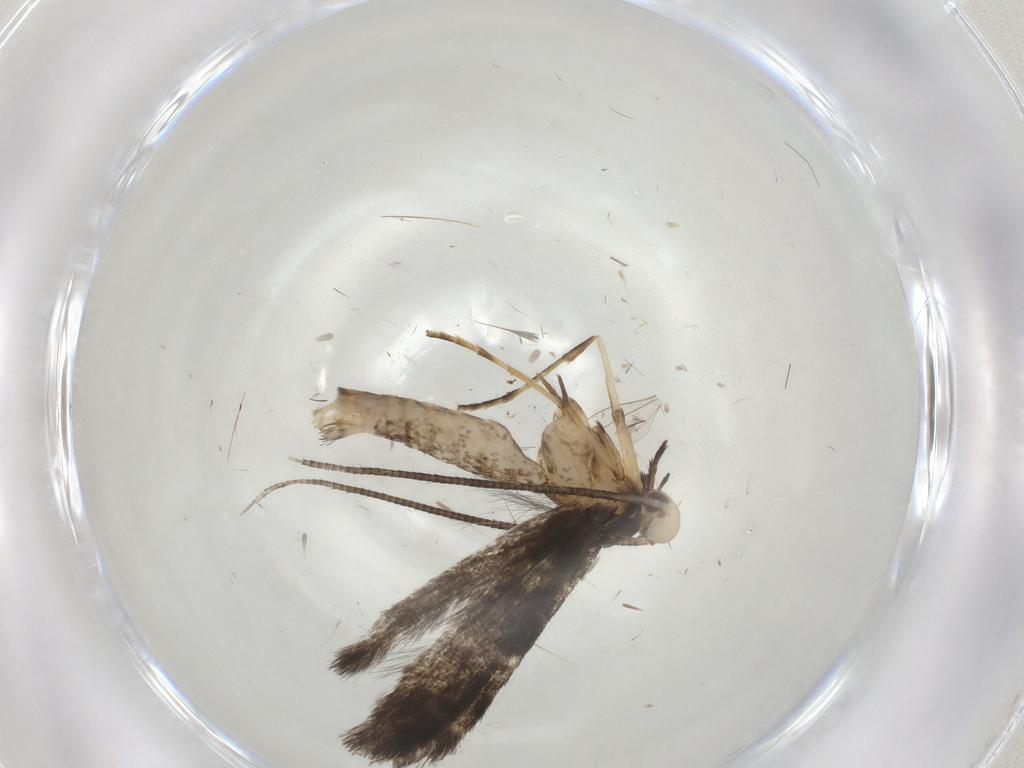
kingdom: Animalia
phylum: Arthropoda
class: Insecta
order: Lepidoptera
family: Gracillariidae
